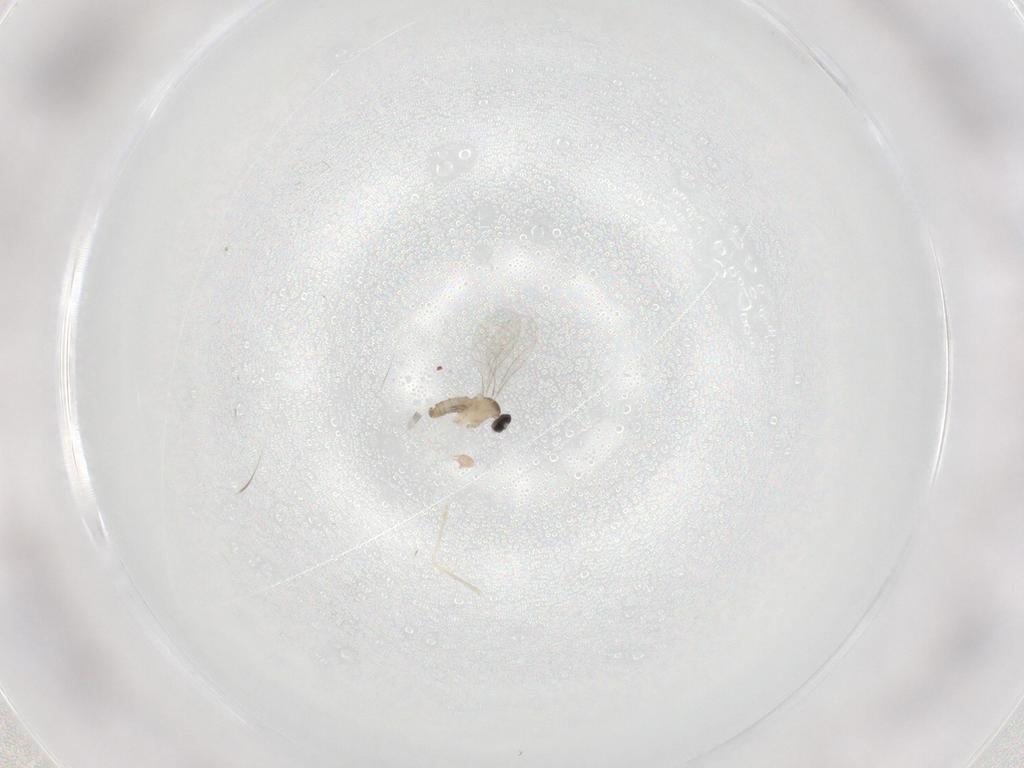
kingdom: Animalia
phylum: Arthropoda
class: Insecta
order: Diptera
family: Cecidomyiidae
